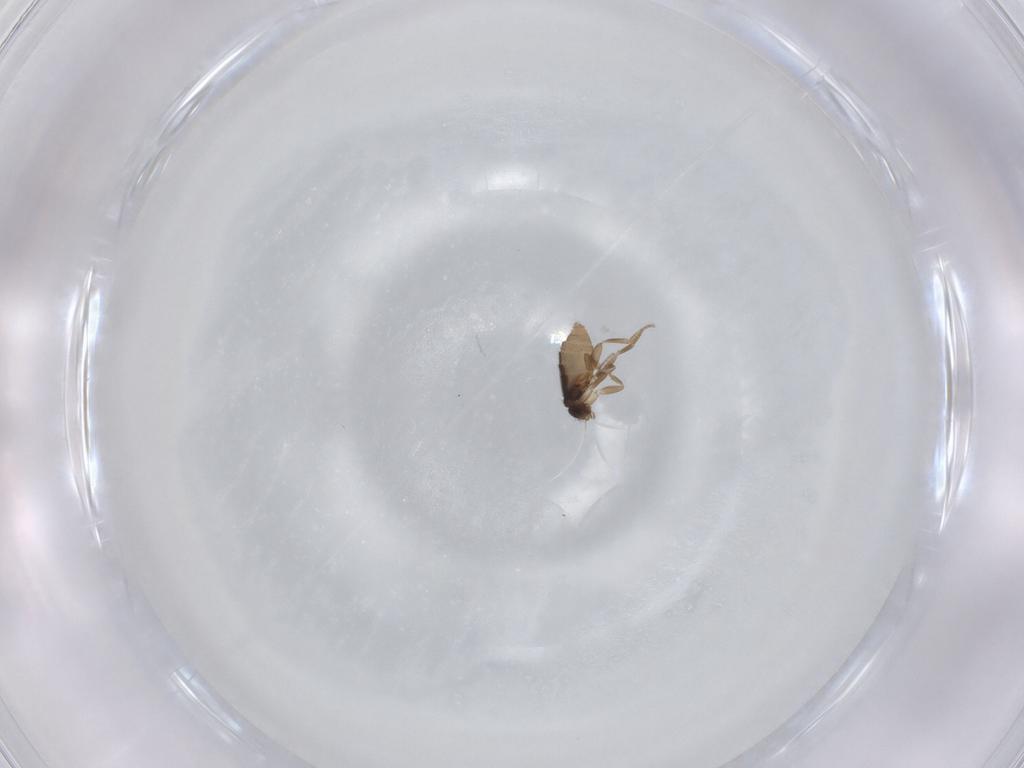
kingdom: Animalia
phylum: Arthropoda
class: Insecta
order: Diptera
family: Phoridae
